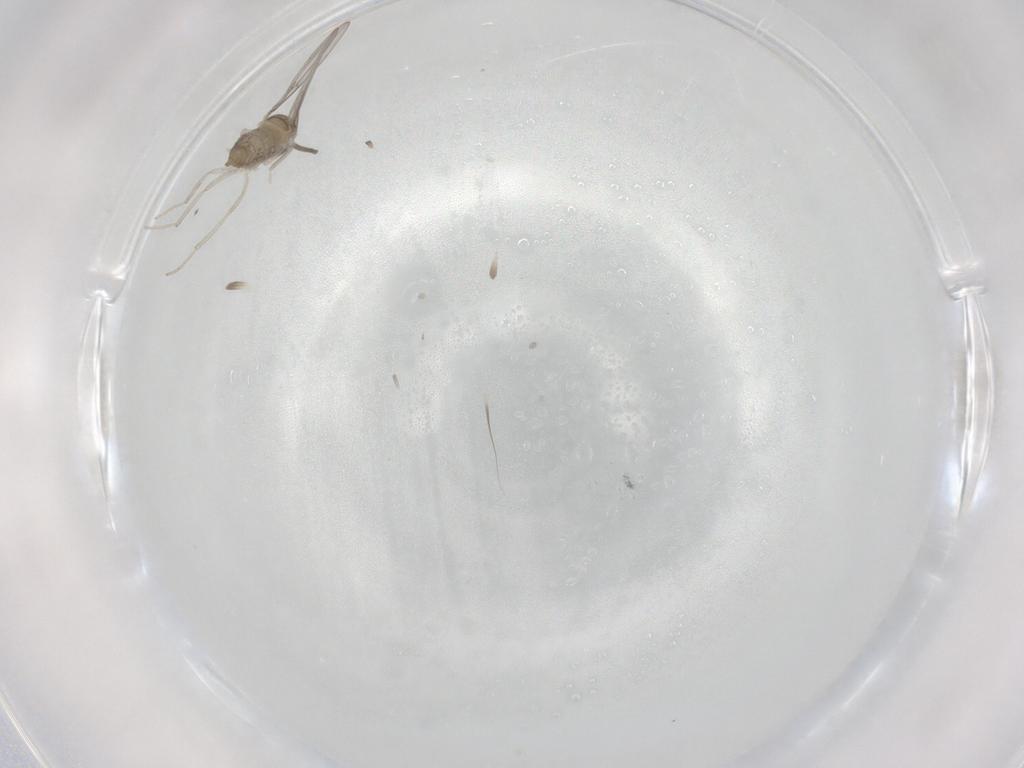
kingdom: Animalia
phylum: Arthropoda
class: Insecta
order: Diptera
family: Cecidomyiidae
